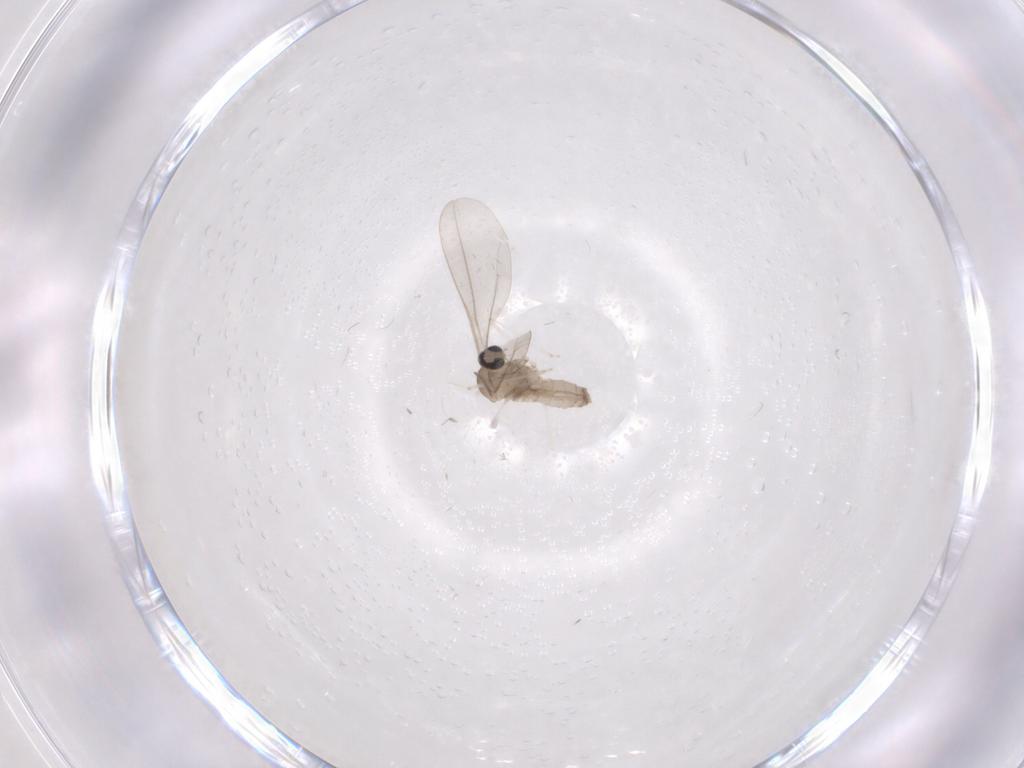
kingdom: Animalia
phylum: Arthropoda
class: Insecta
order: Diptera
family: Cecidomyiidae
